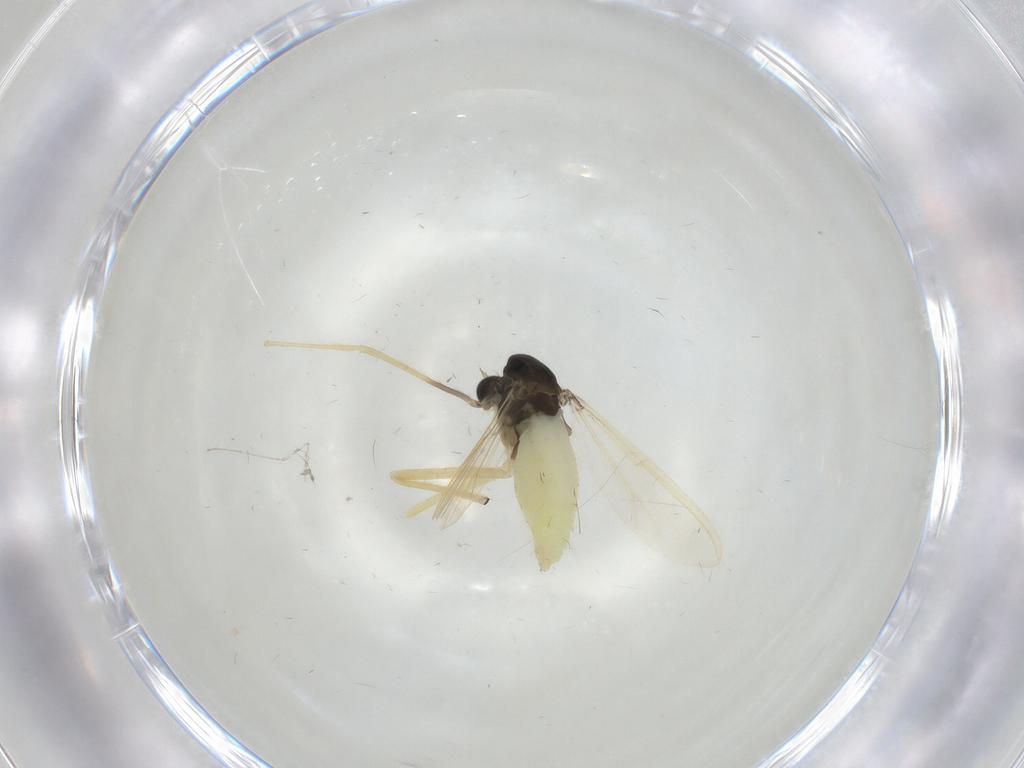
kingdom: Animalia
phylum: Arthropoda
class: Insecta
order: Diptera
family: Chironomidae
